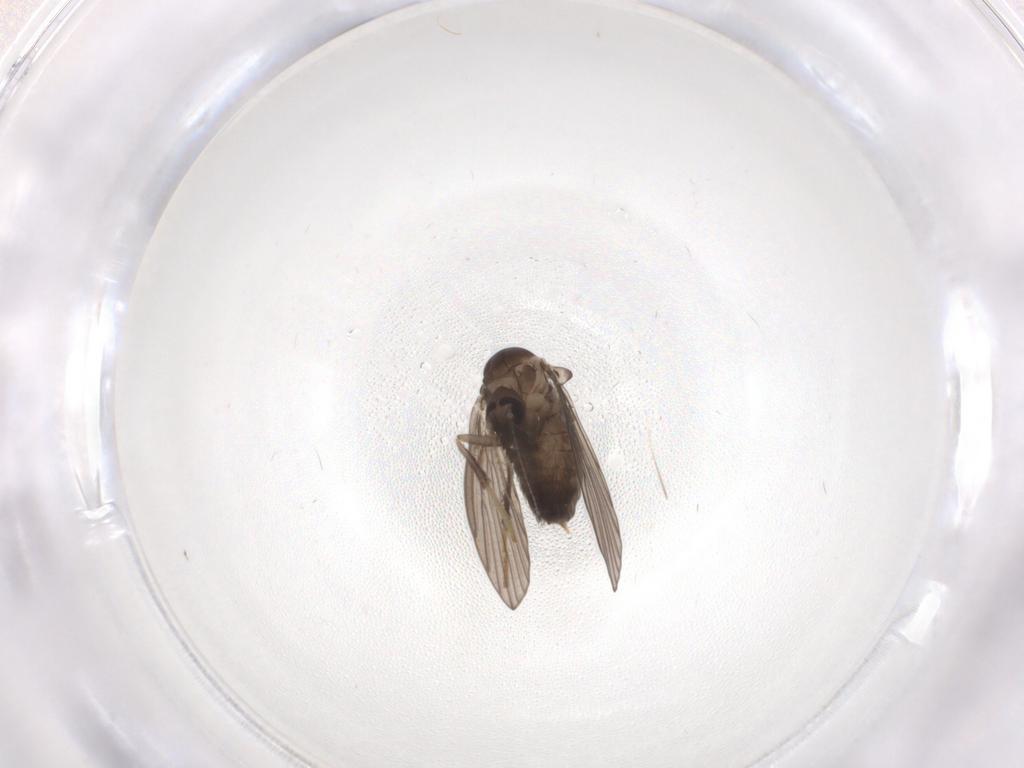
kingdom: Animalia
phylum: Arthropoda
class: Insecta
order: Diptera
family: Psychodidae
